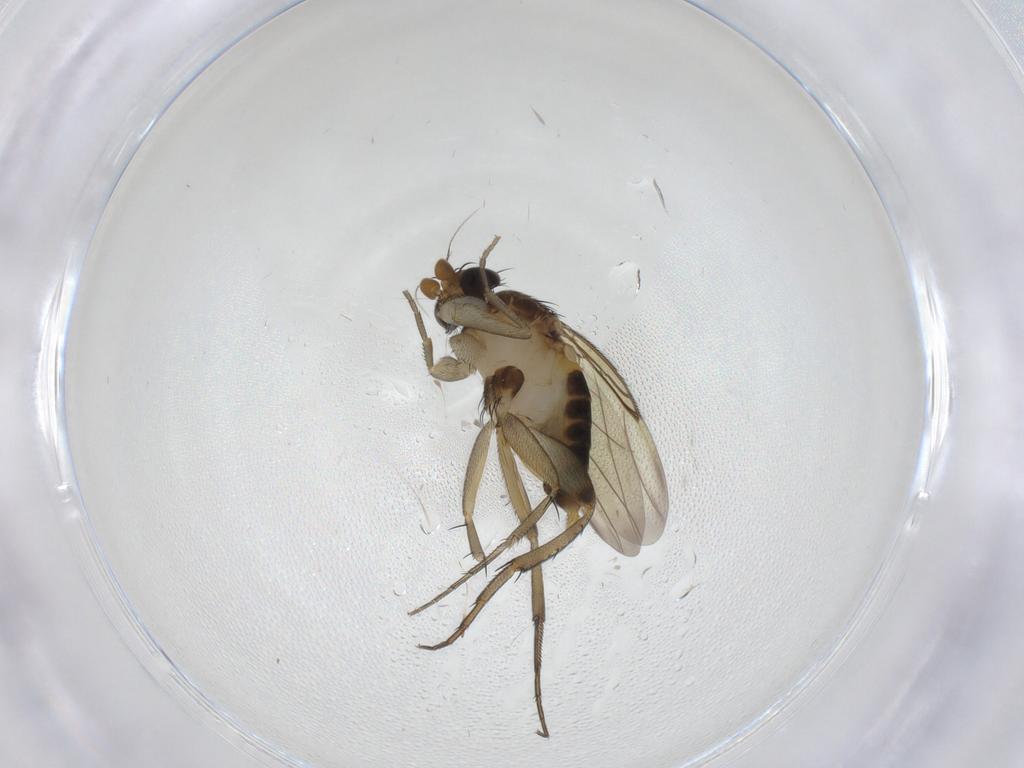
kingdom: Animalia
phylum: Arthropoda
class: Insecta
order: Diptera
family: Phoridae
